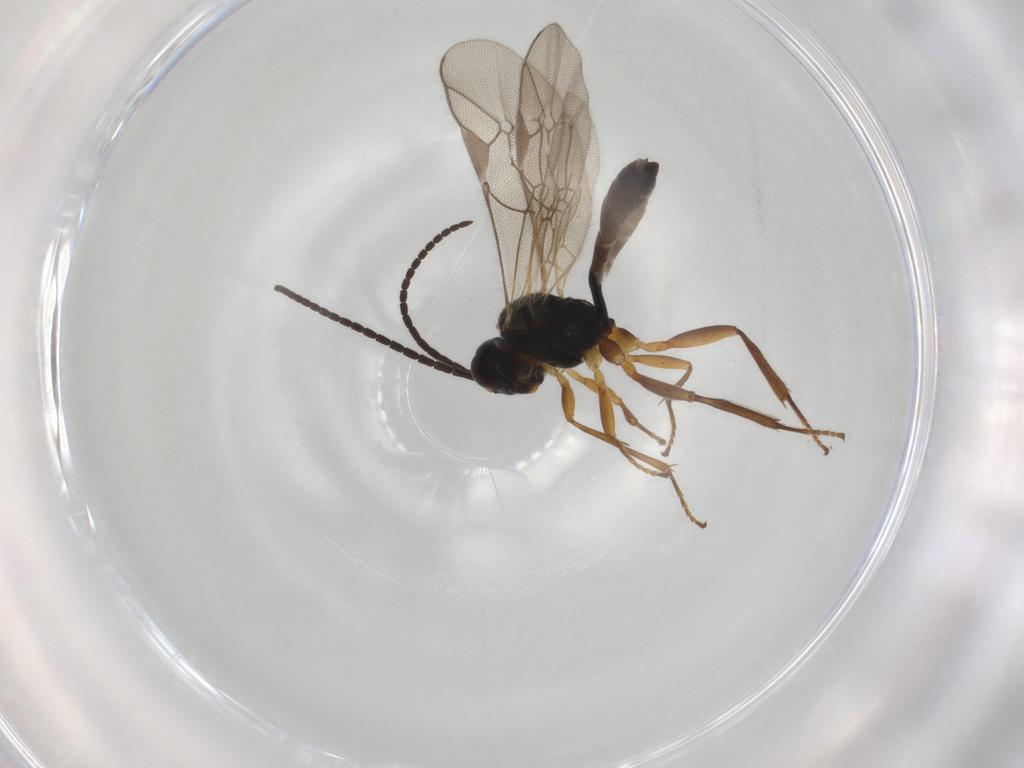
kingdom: Animalia
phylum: Arthropoda
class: Insecta
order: Hymenoptera
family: Ichneumonidae
